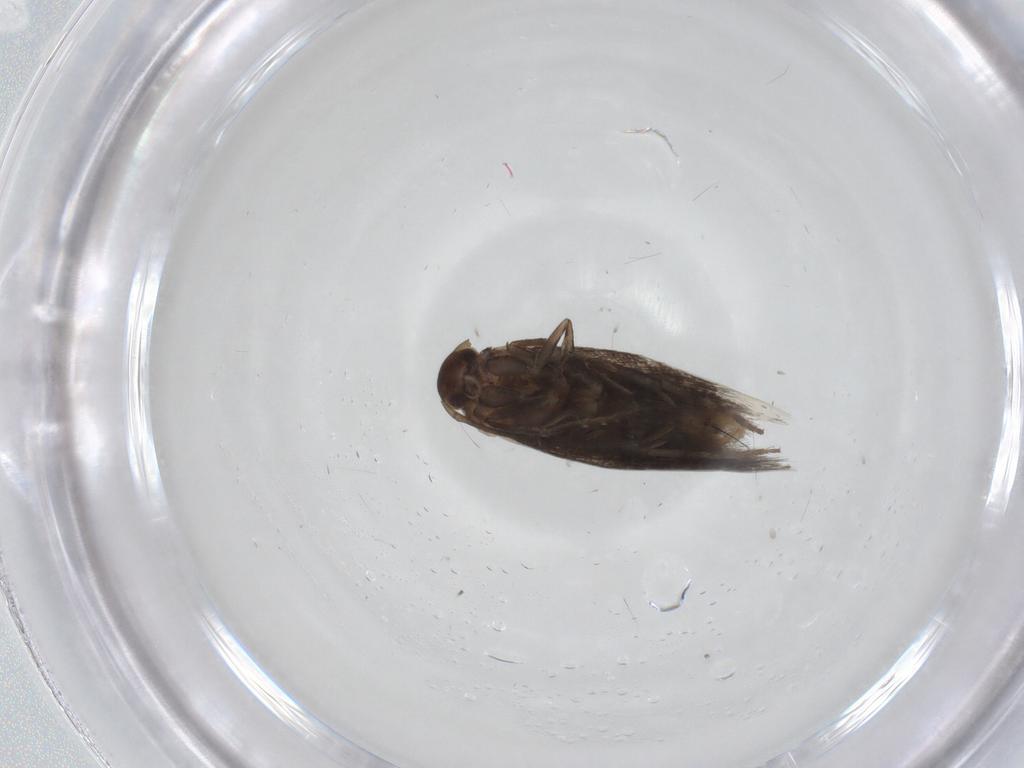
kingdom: Animalia
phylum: Arthropoda
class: Insecta
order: Lepidoptera
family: Elachistidae
